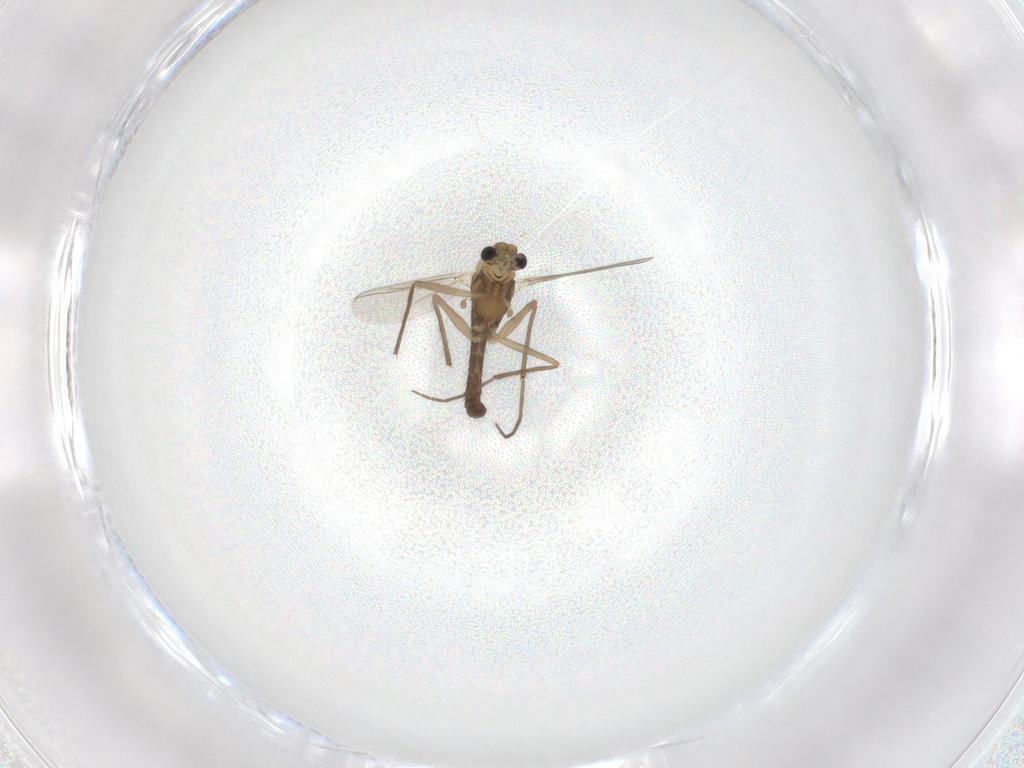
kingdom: Animalia
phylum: Arthropoda
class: Insecta
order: Diptera
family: Chironomidae
